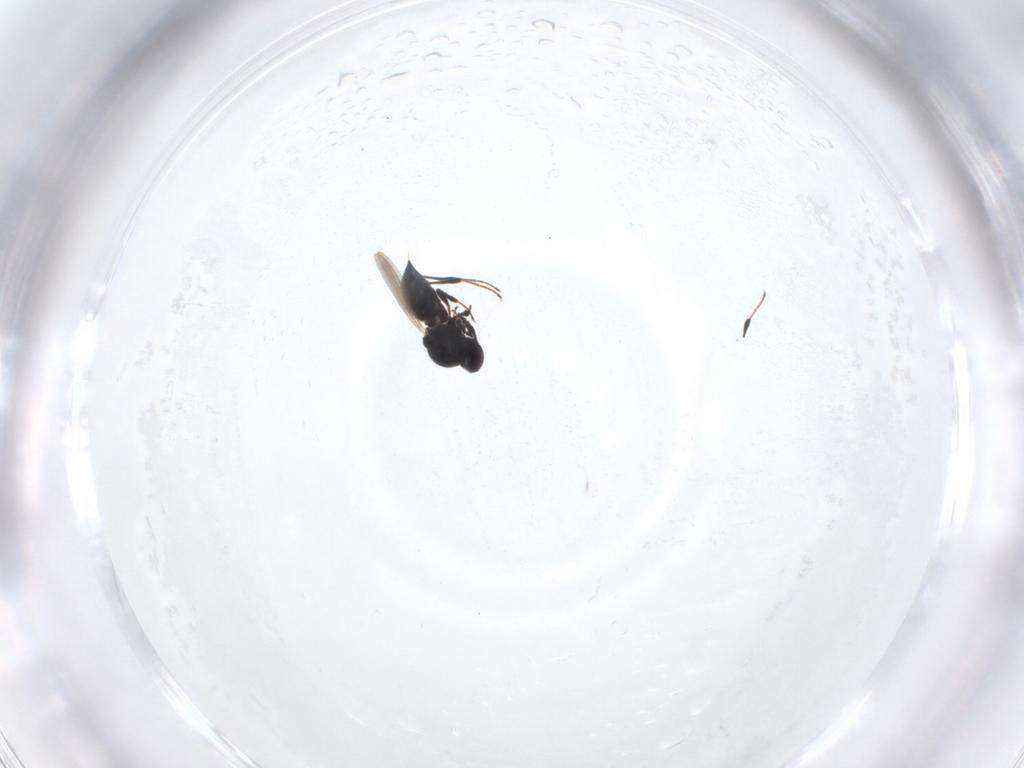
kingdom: Animalia
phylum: Arthropoda
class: Insecta
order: Hymenoptera
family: Platygastridae
